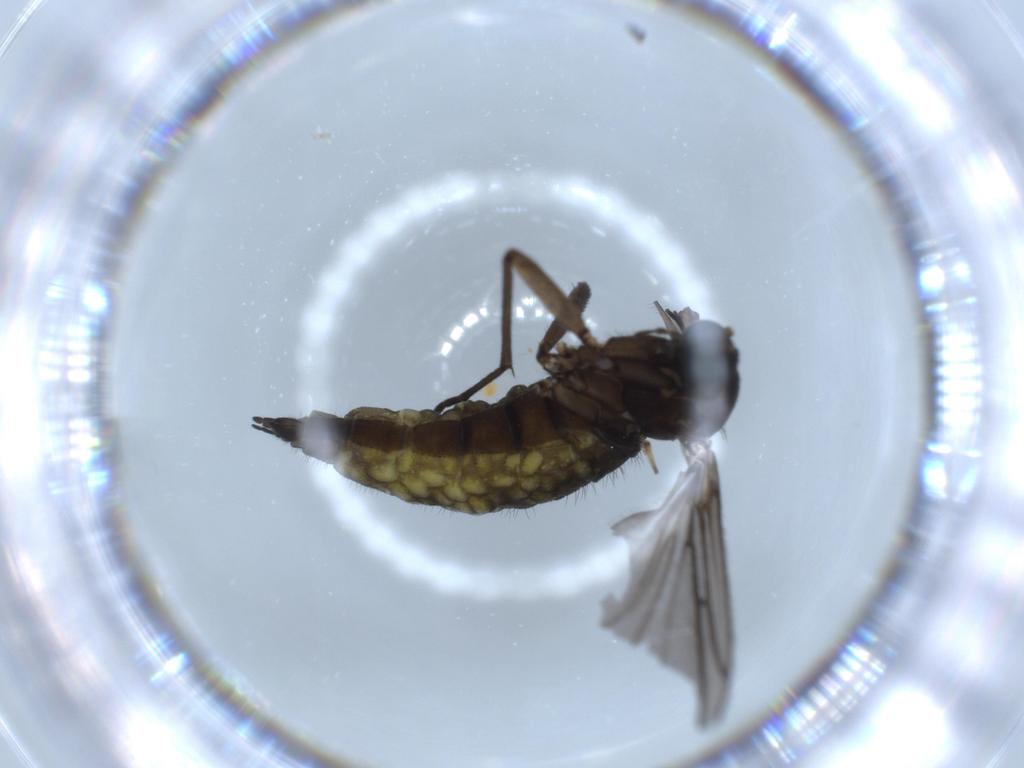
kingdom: Animalia
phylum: Arthropoda
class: Insecta
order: Diptera
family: Sciaridae
